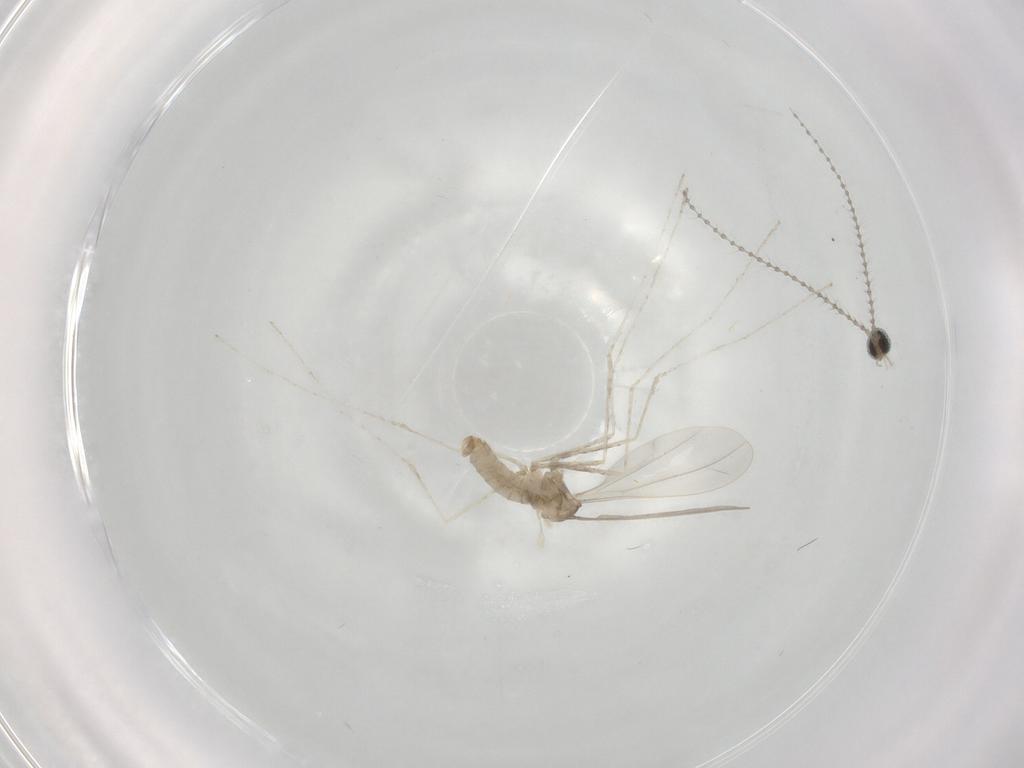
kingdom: Animalia
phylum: Arthropoda
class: Insecta
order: Diptera
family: Cecidomyiidae
